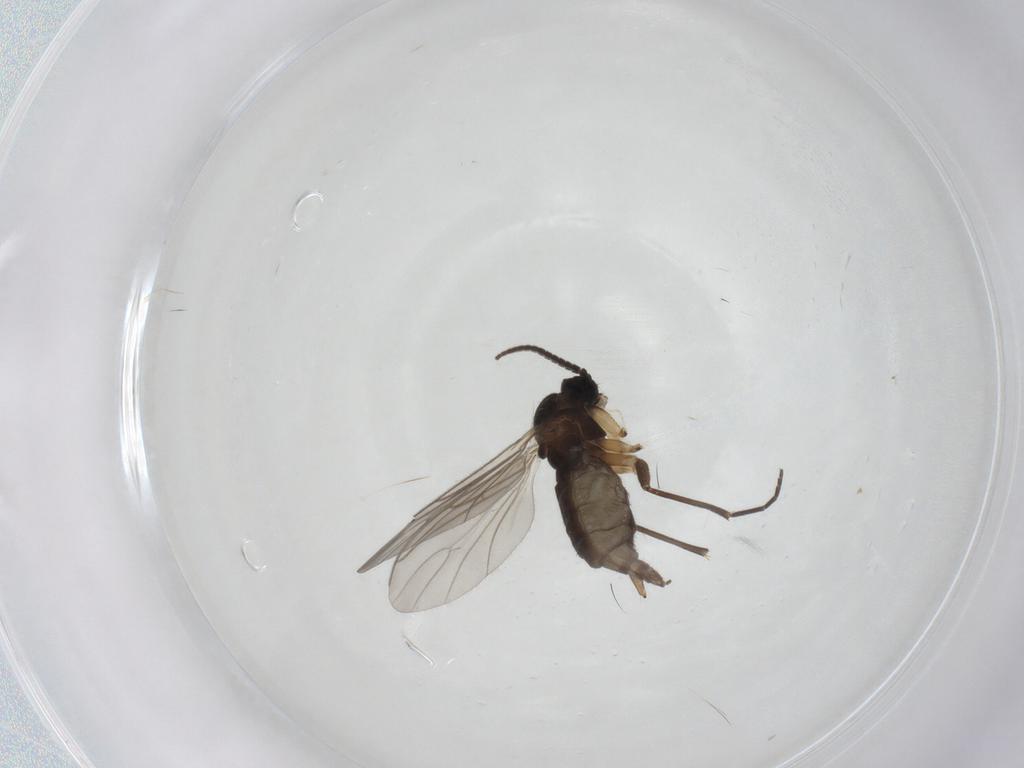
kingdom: Animalia
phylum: Arthropoda
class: Insecta
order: Diptera
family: Sciaridae
